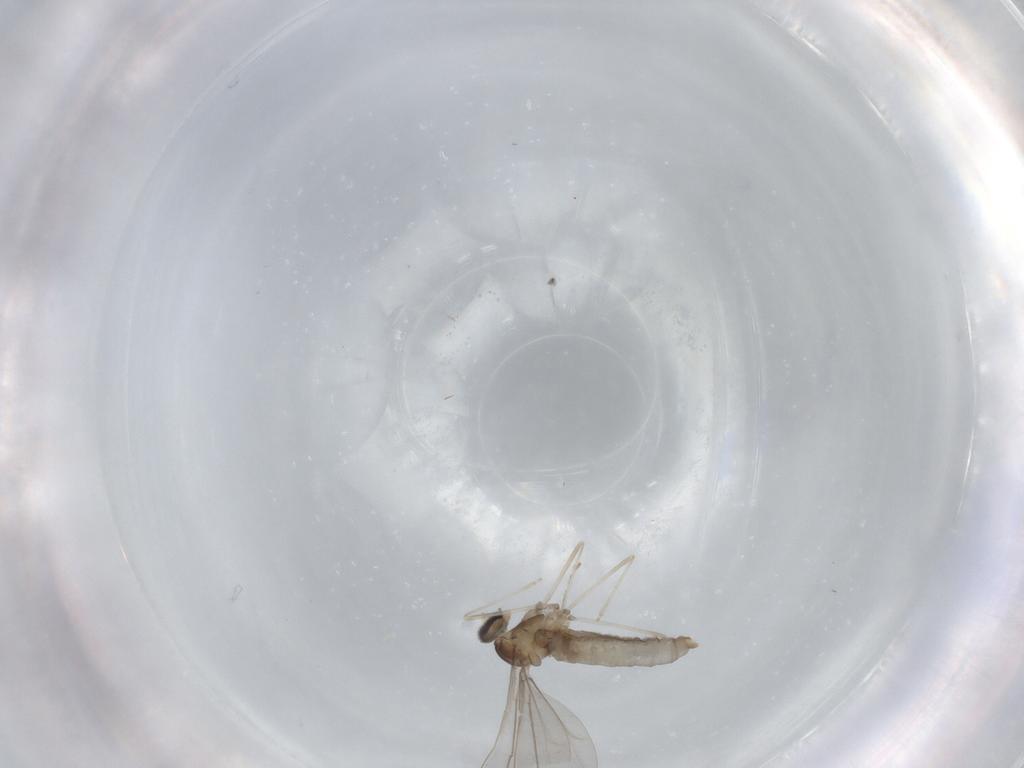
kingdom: Animalia
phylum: Arthropoda
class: Insecta
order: Diptera
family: Cecidomyiidae
